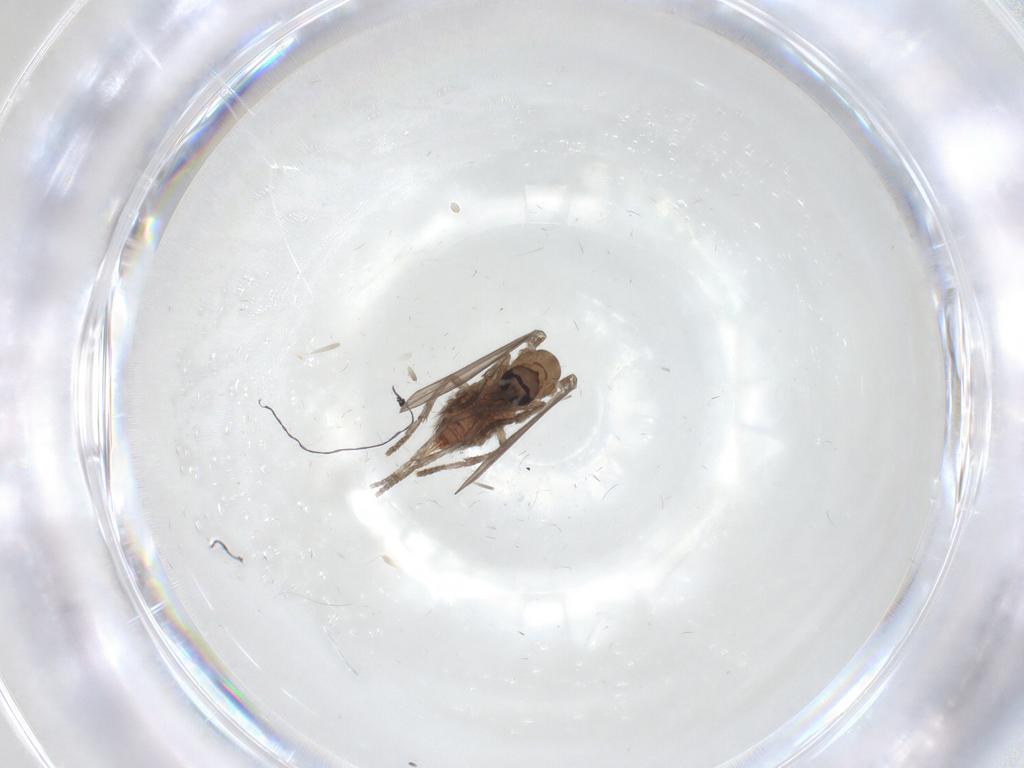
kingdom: Animalia
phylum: Arthropoda
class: Insecta
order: Diptera
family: Psychodidae
